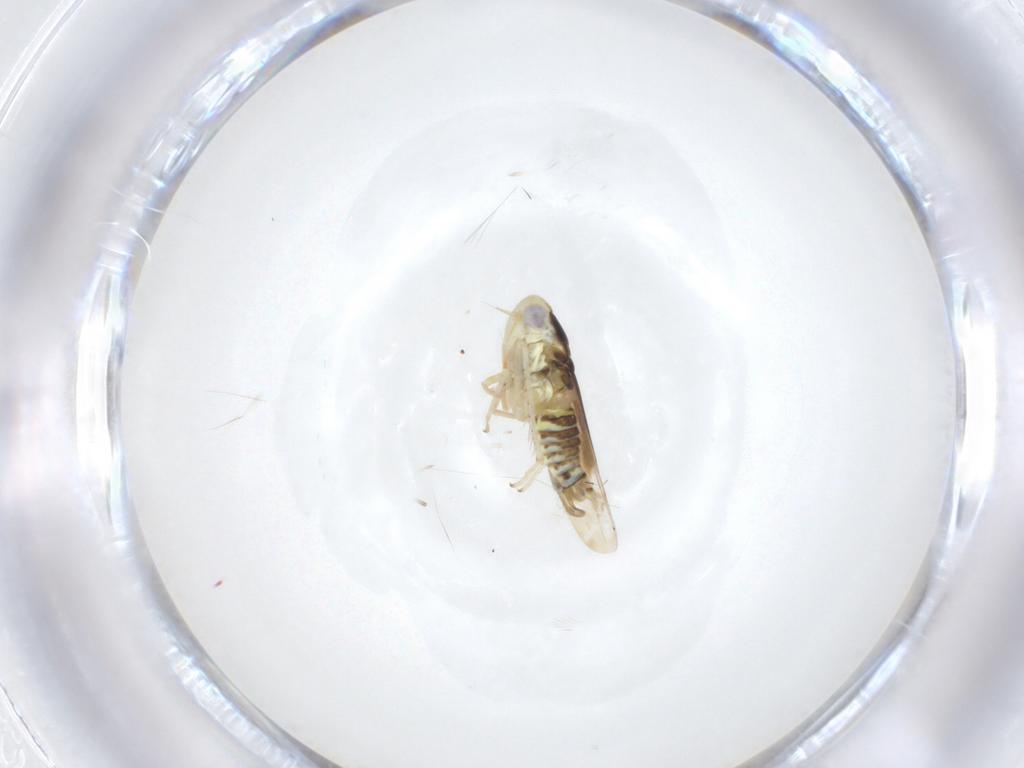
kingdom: Animalia
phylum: Arthropoda
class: Insecta
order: Hemiptera
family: Cicadellidae
